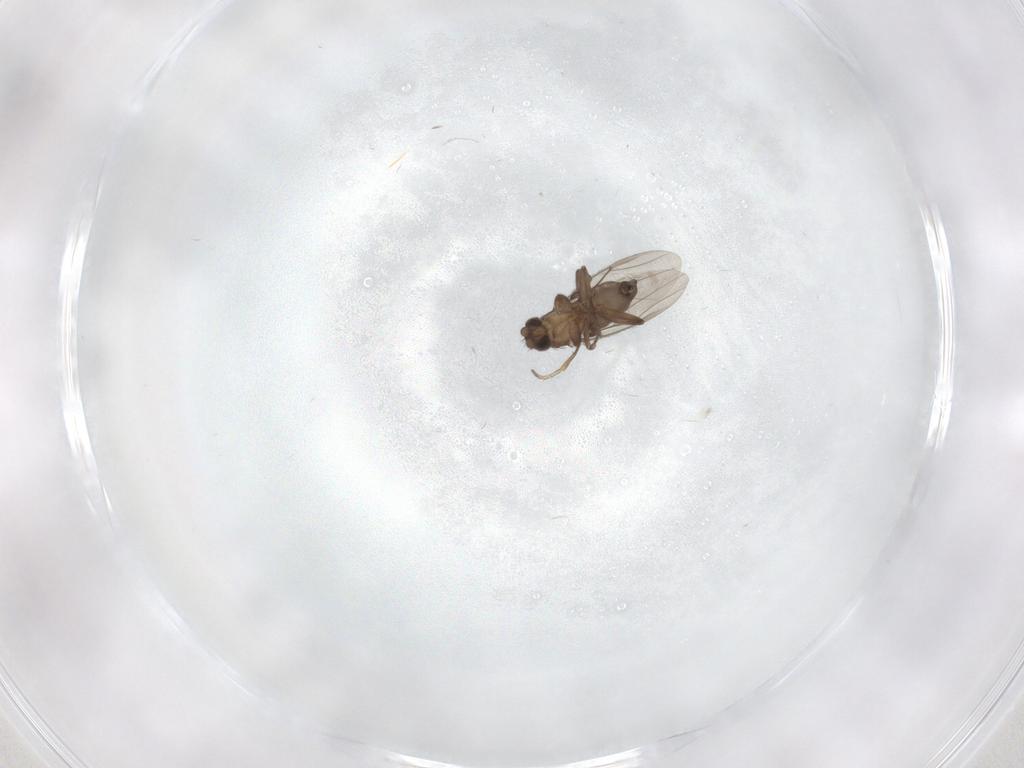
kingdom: Animalia
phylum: Arthropoda
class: Insecta
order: Diptera
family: Phoridae
